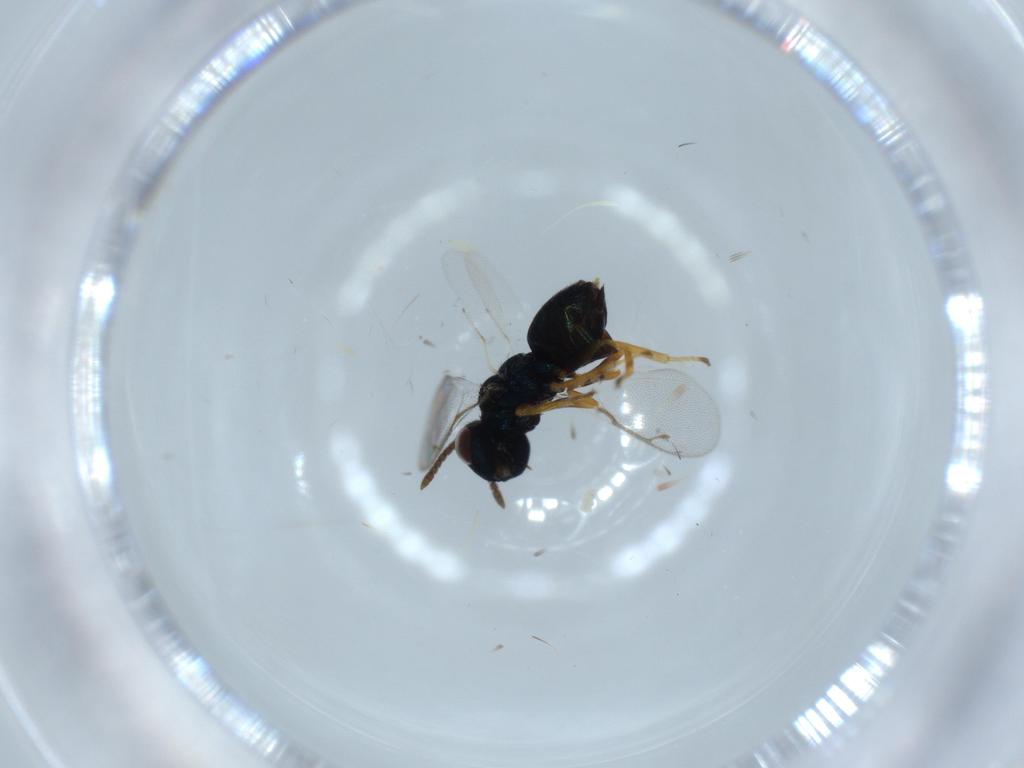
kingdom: Animalia
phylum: Arthropoda
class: Insecta
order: Hymenoptera
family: Pteromalidae
